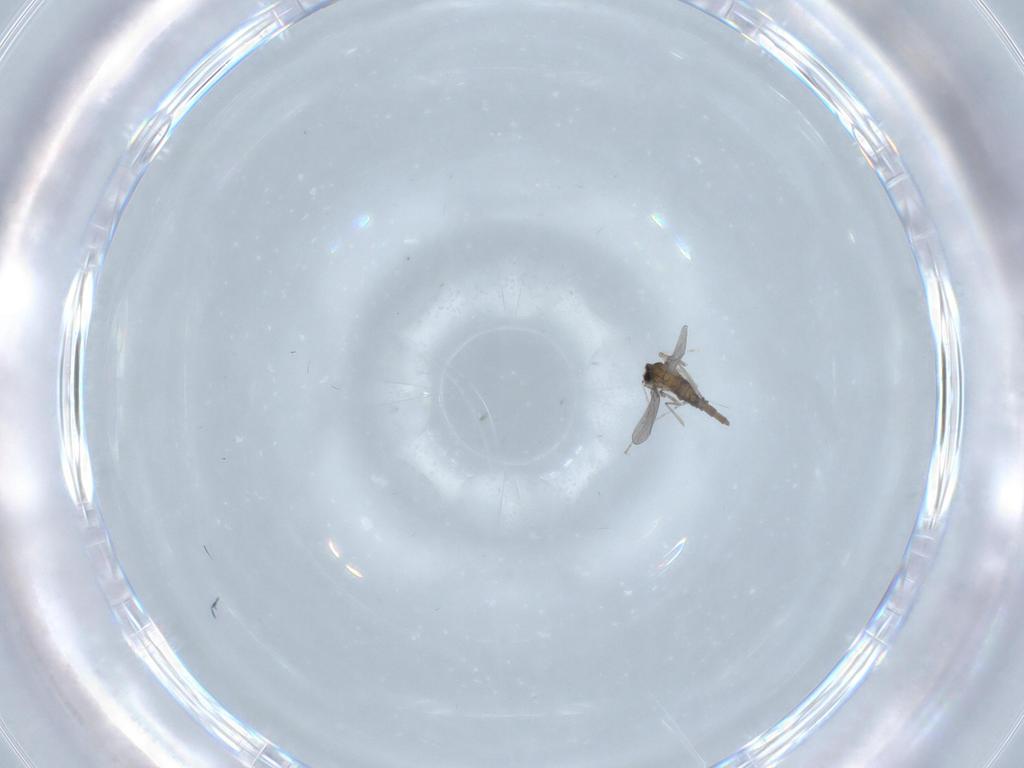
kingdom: Animalia
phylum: Arthropoda
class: Insecta
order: Diptera
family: Cecidomyiidae
